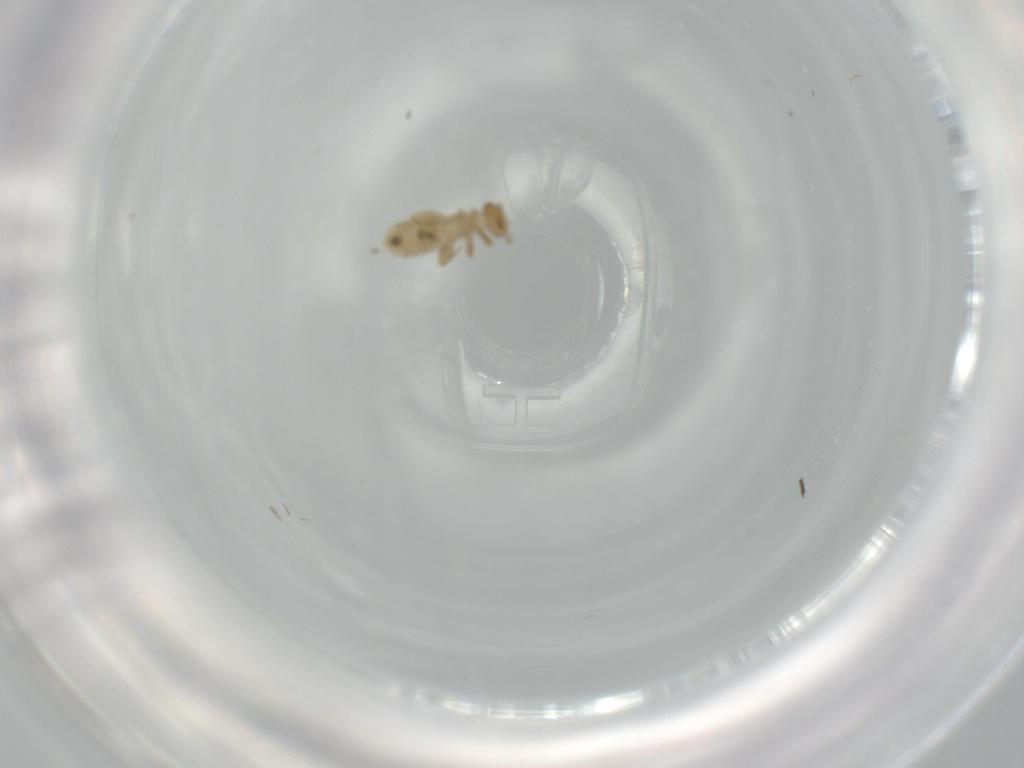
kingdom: Animalia
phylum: Arthropoda
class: Insecta
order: Psocodea
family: Liposcelididae
